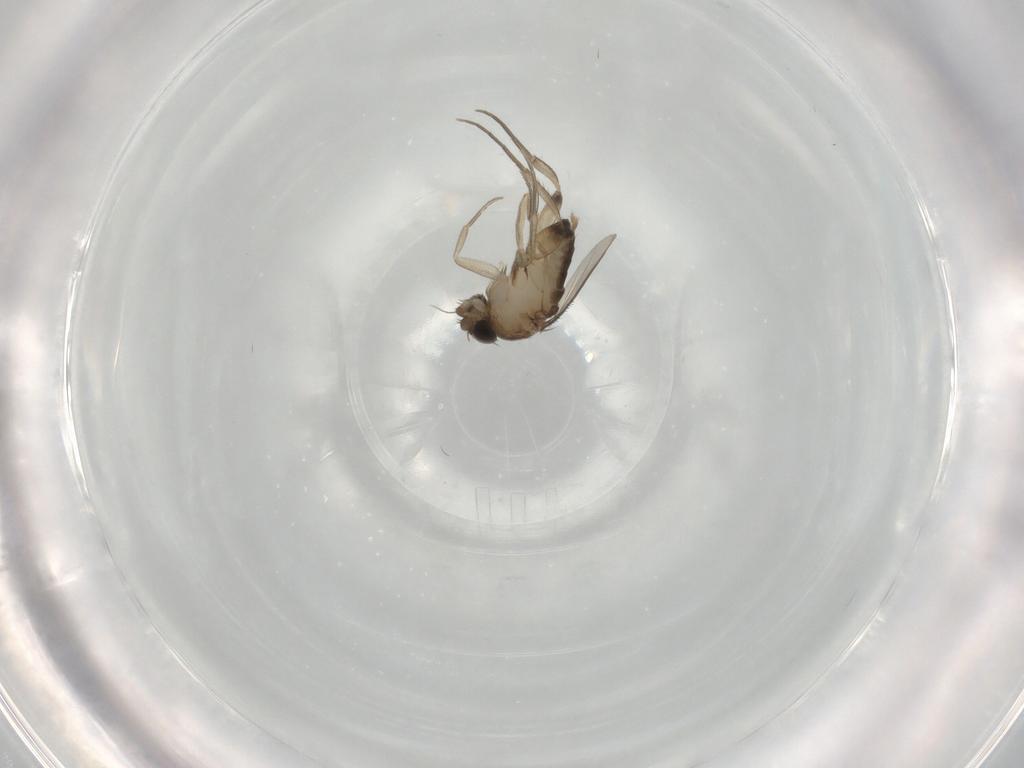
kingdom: Animalia
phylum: Arthropoda
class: Insecta
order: Diptera
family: Phoridae
